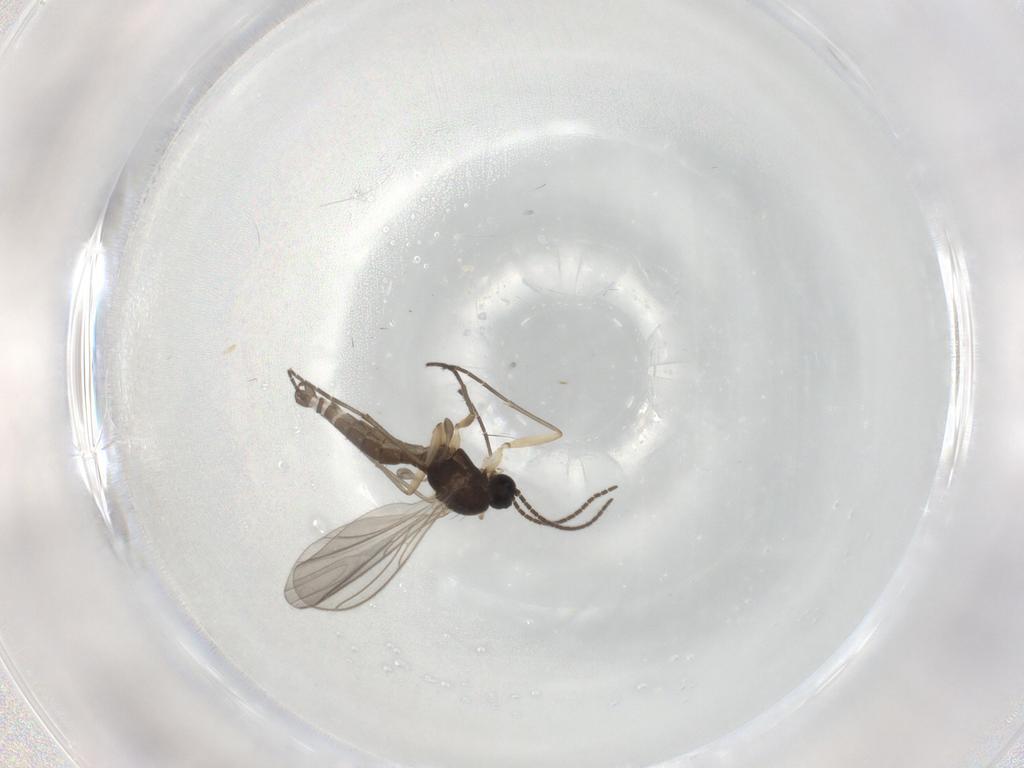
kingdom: Animalia
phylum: Arthropoda
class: Insecta
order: Diptera
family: Sciaridae
